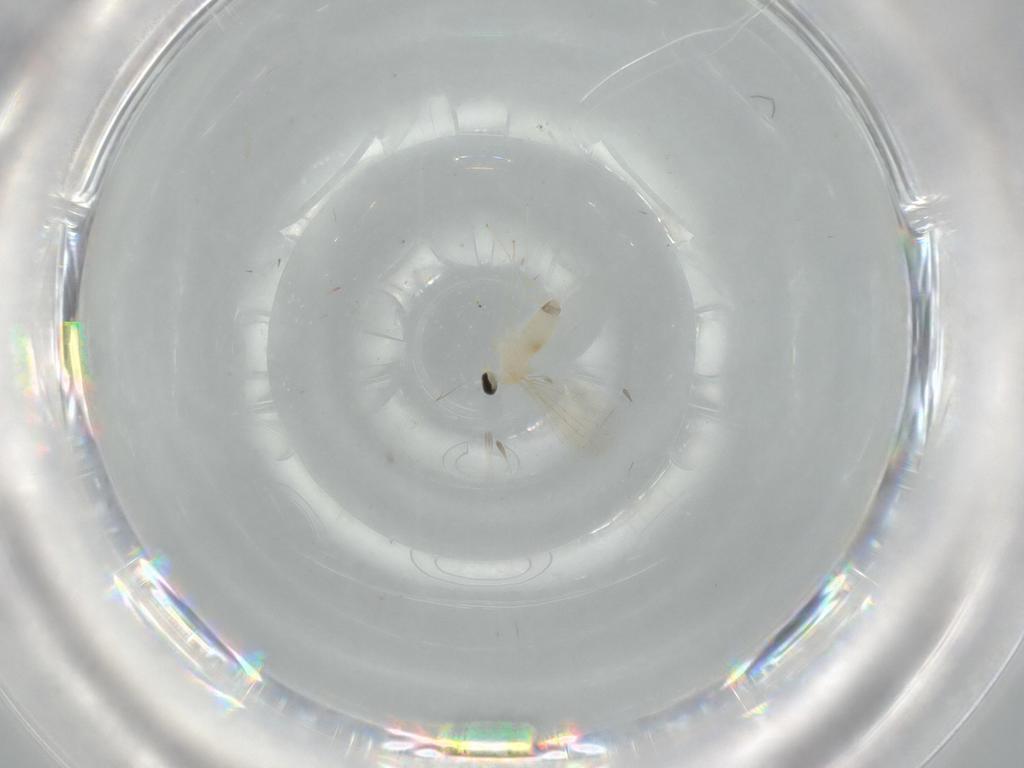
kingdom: Animalia
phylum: Arthropoda
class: Insecta
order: Diptera
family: Cecidomyiidae
